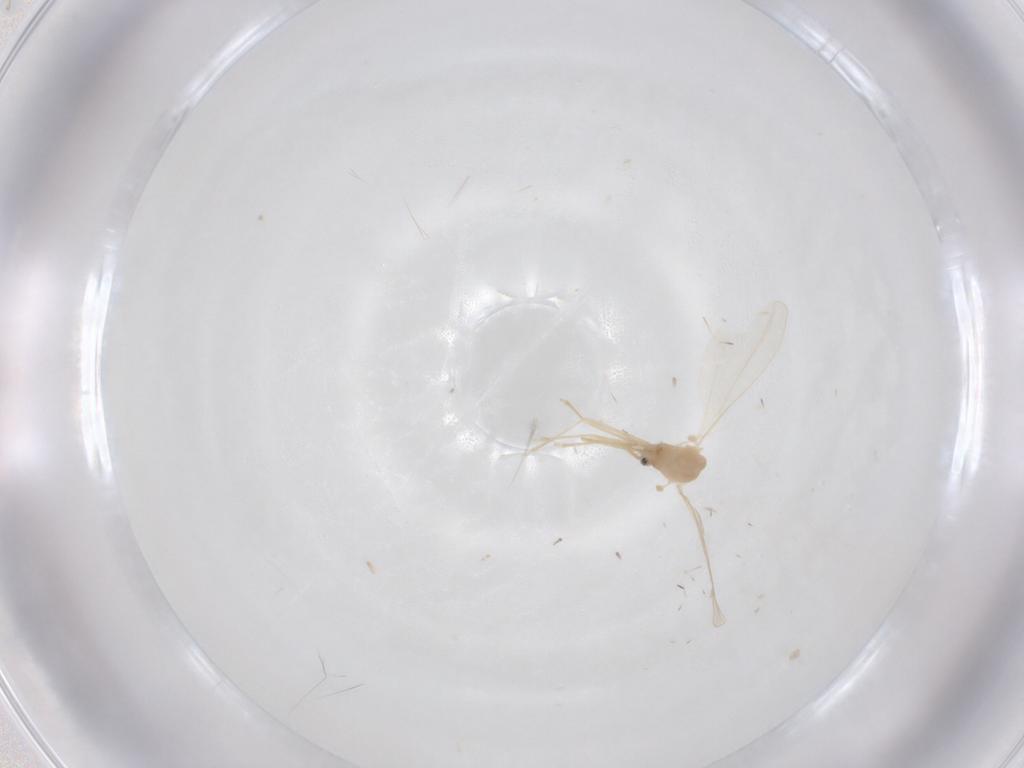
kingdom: Animalia
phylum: Arthropoda
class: Insecta
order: Diptera
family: Cecidomyiidae
